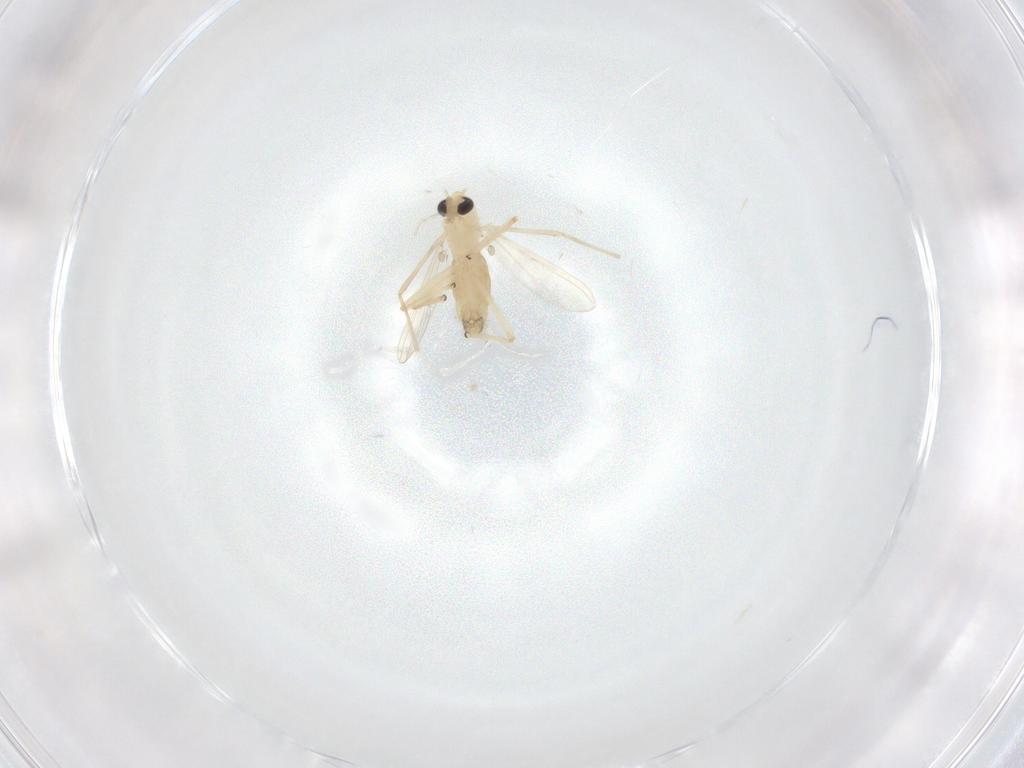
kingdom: Animalia
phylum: Arthropoda
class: Insecta
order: Diptera
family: Chironomidae
